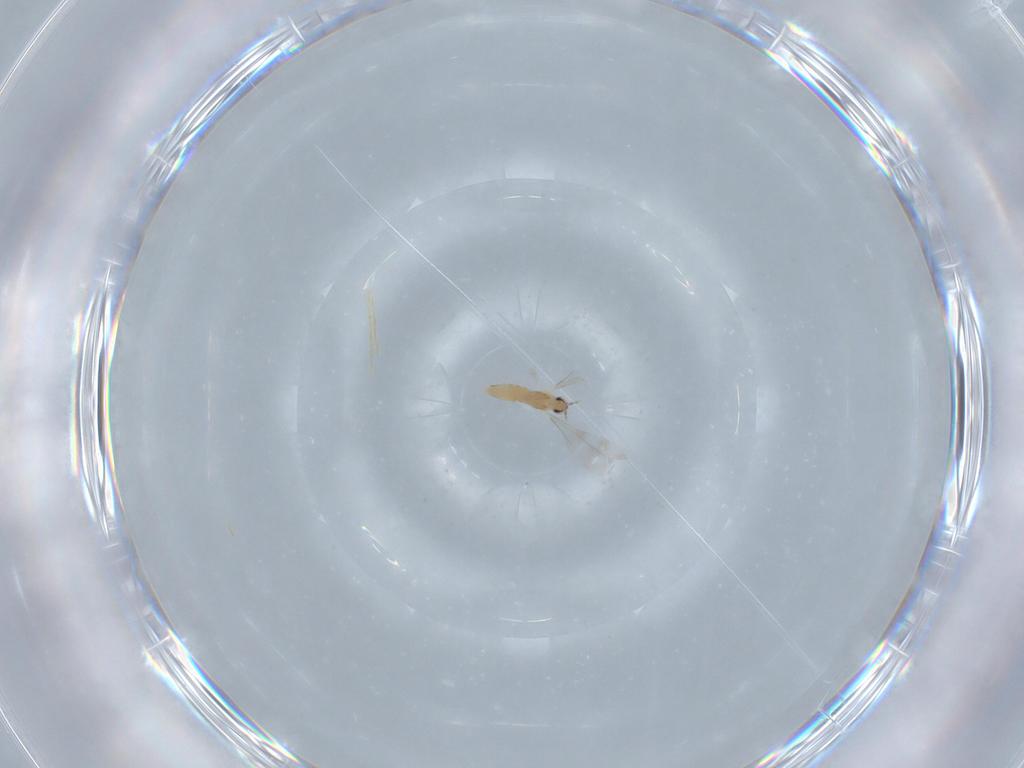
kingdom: Animalia
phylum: Arthropoda
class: Insecta
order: Diptera
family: Cecidomyiidae
